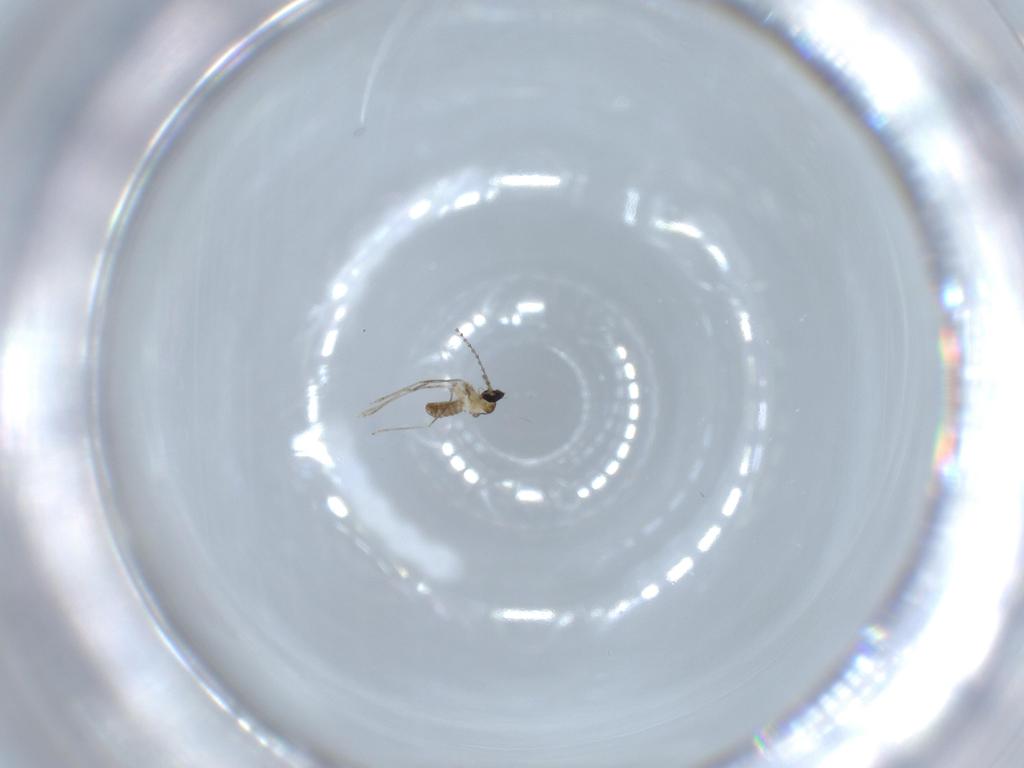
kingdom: Animalia
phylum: Arthropoda
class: Insecta
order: Diptera
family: Cecidomyiidae
